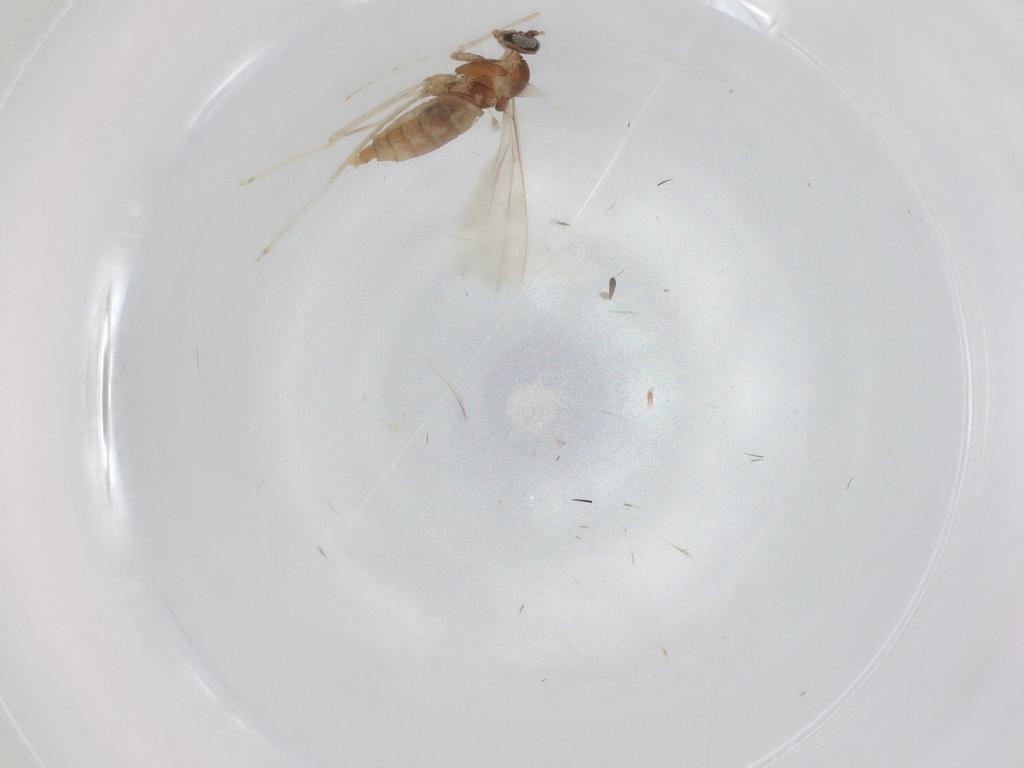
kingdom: Animalia
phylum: Arthropoda
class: Insecta
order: Diptera
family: Cecidomyiidae
